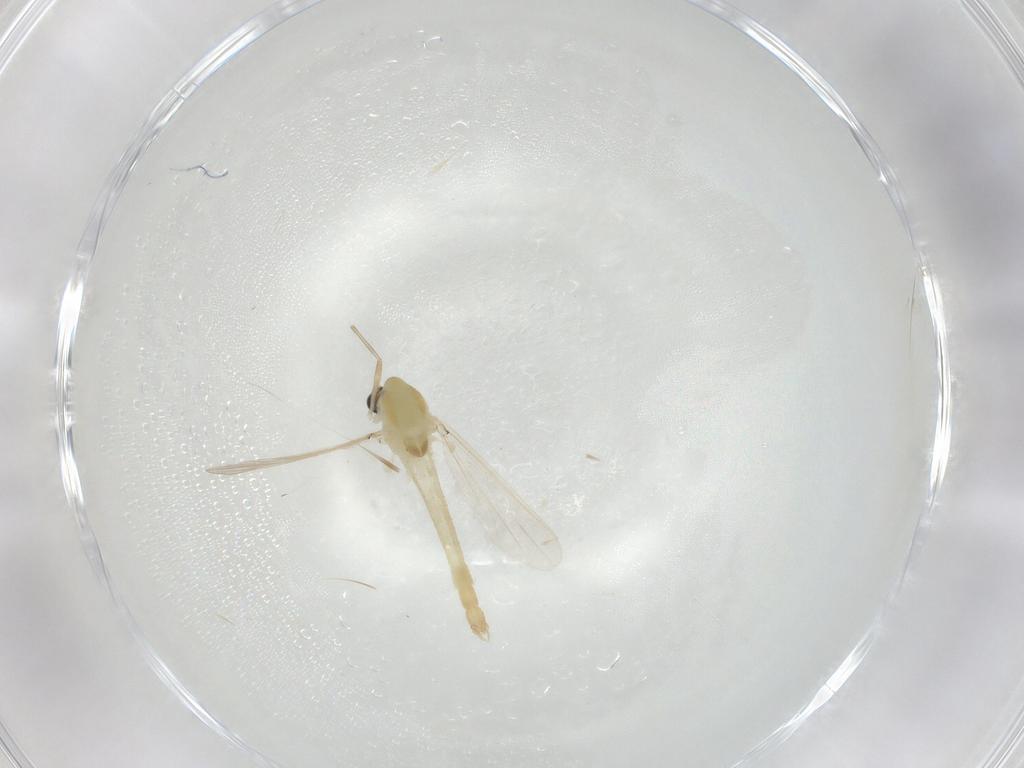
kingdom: Animalia
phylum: Arthropoda
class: Insecta
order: Diptera
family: Chironomidae
